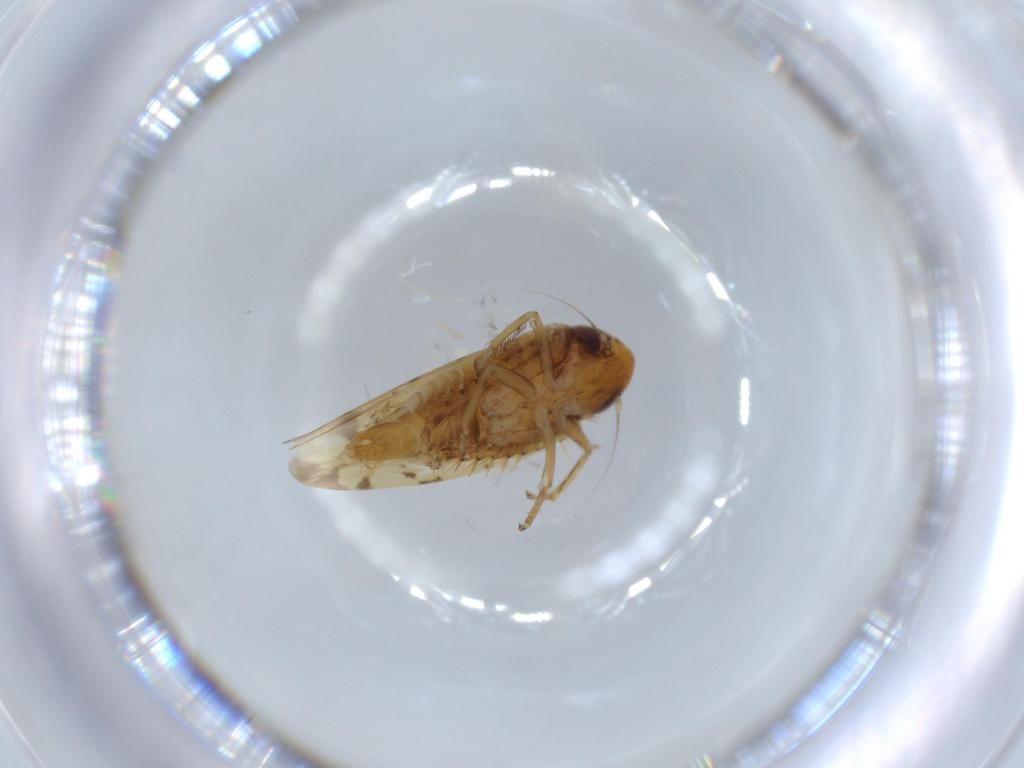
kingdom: Animalia
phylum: Arthropoda
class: Insecta
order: Hemiptera
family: Cicadellidae
